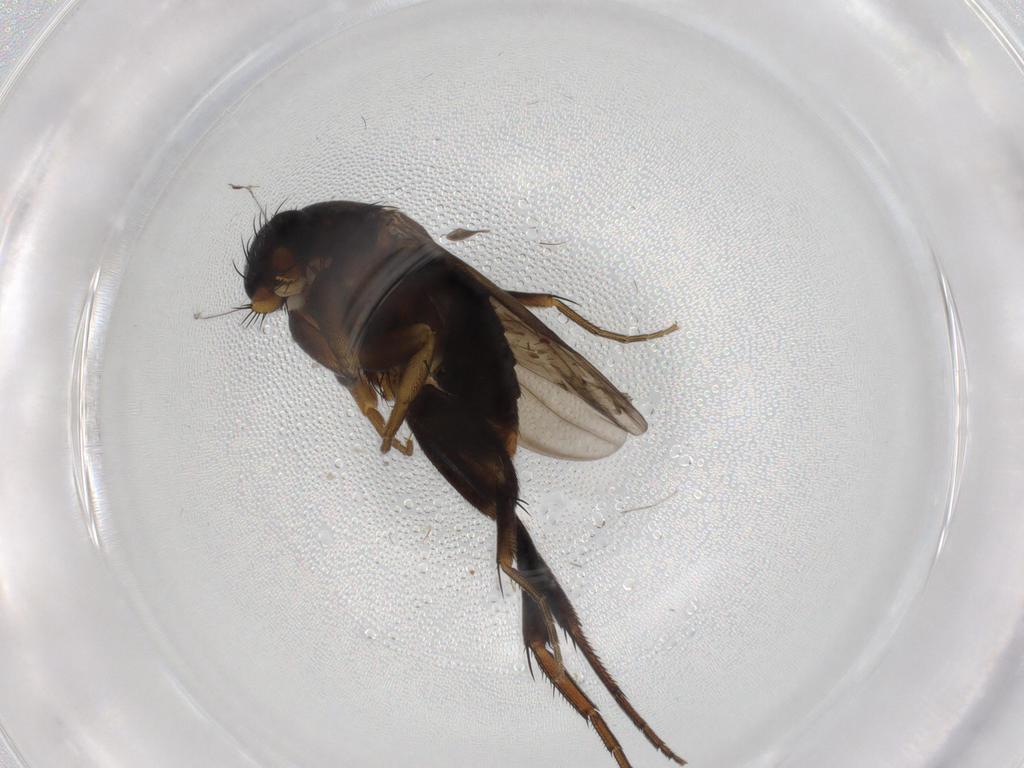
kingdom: Animalia
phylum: Arthropoda
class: Insecta
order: Diptera
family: Phoridae
